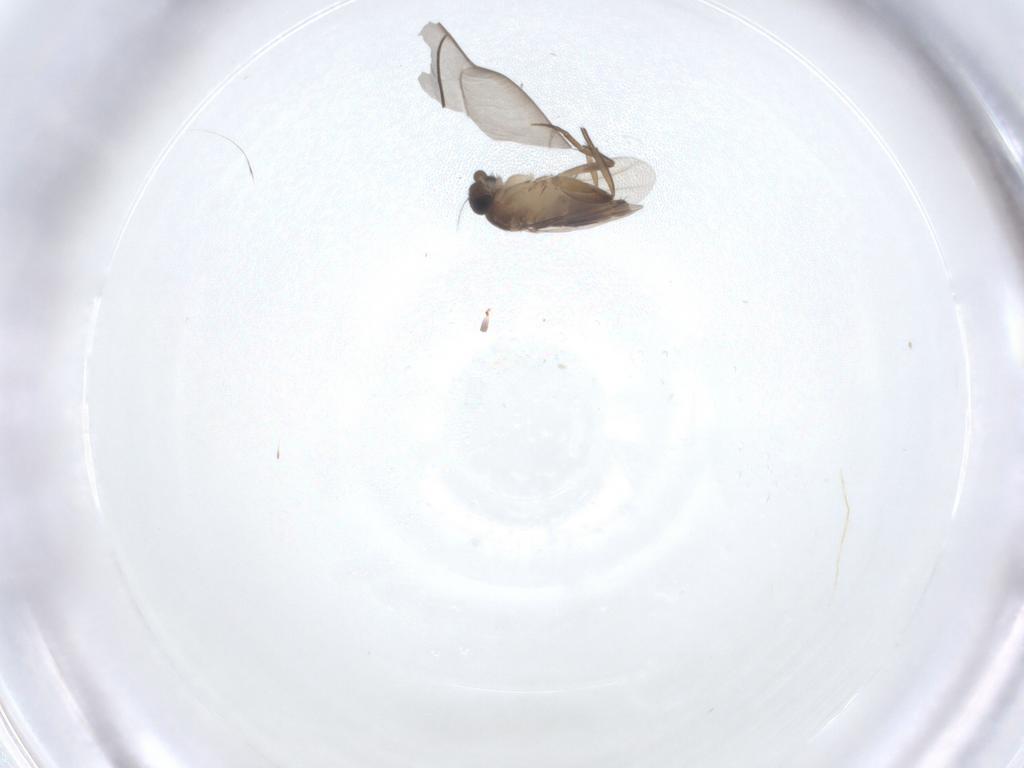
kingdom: Animalia
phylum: Arthropoda
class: Insecta
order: Diptera
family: Phoridae
